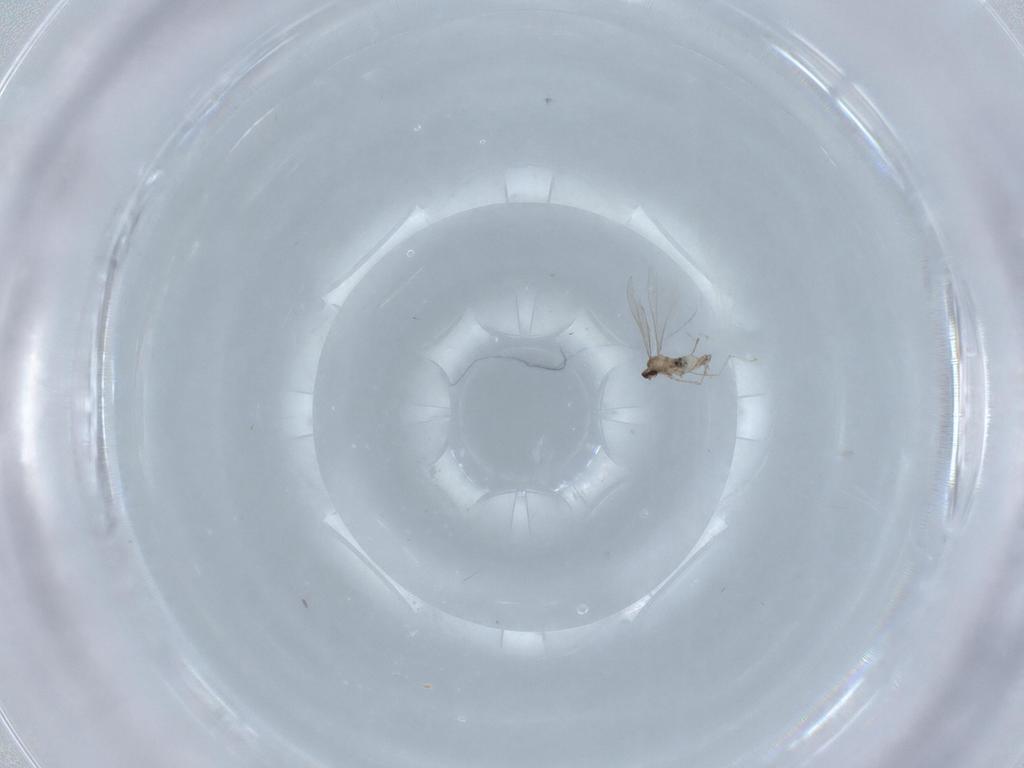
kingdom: Animalia
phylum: Arthropoda
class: Insecta
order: Diptera
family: Cecidomyiidae
